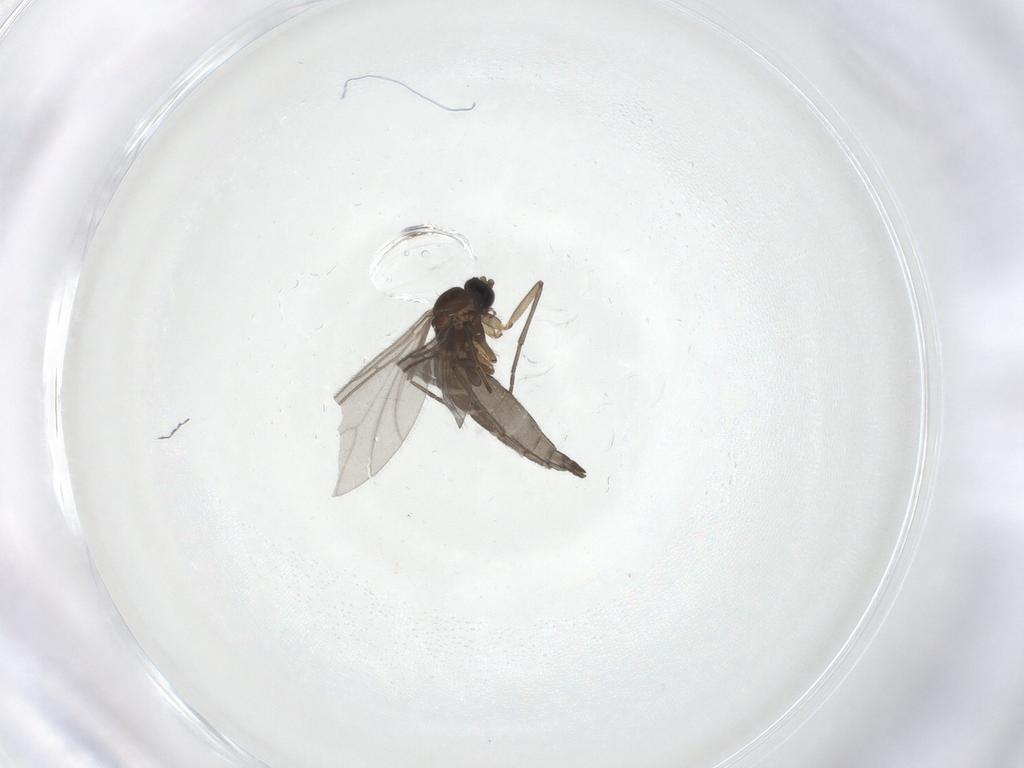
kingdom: Animalia
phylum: Arthropoda
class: Insecta
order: Diptera
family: Sciaridae
